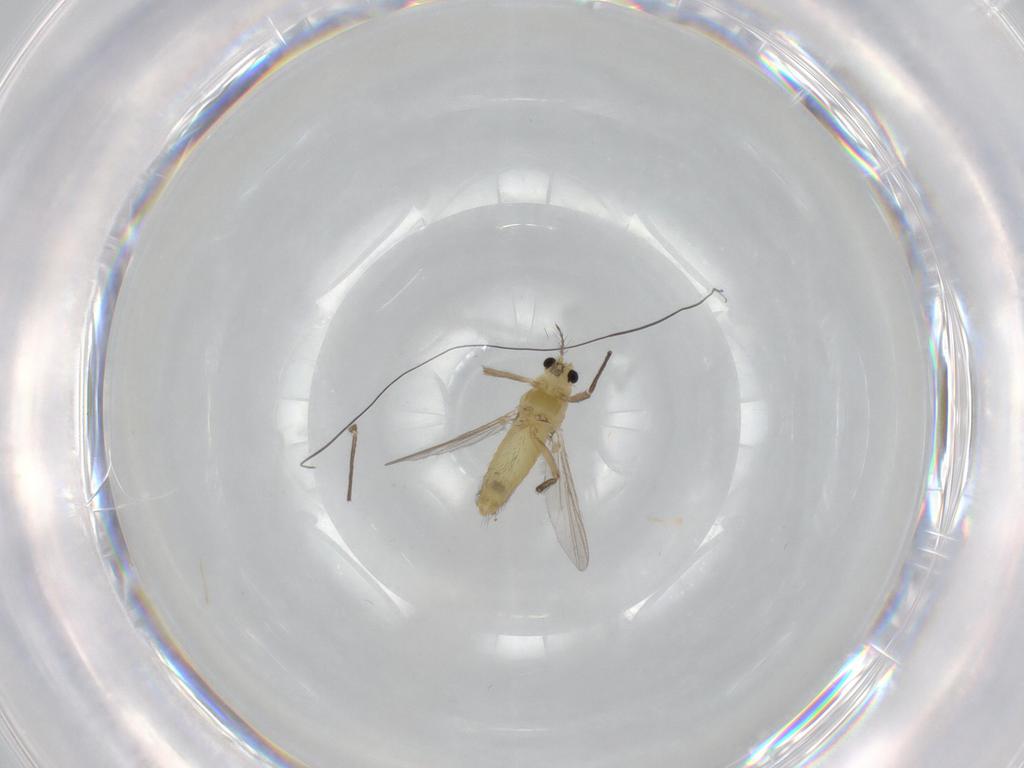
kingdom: Animalia
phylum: Arthropoda
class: Insecta
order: Diptera
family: Chironomidae
